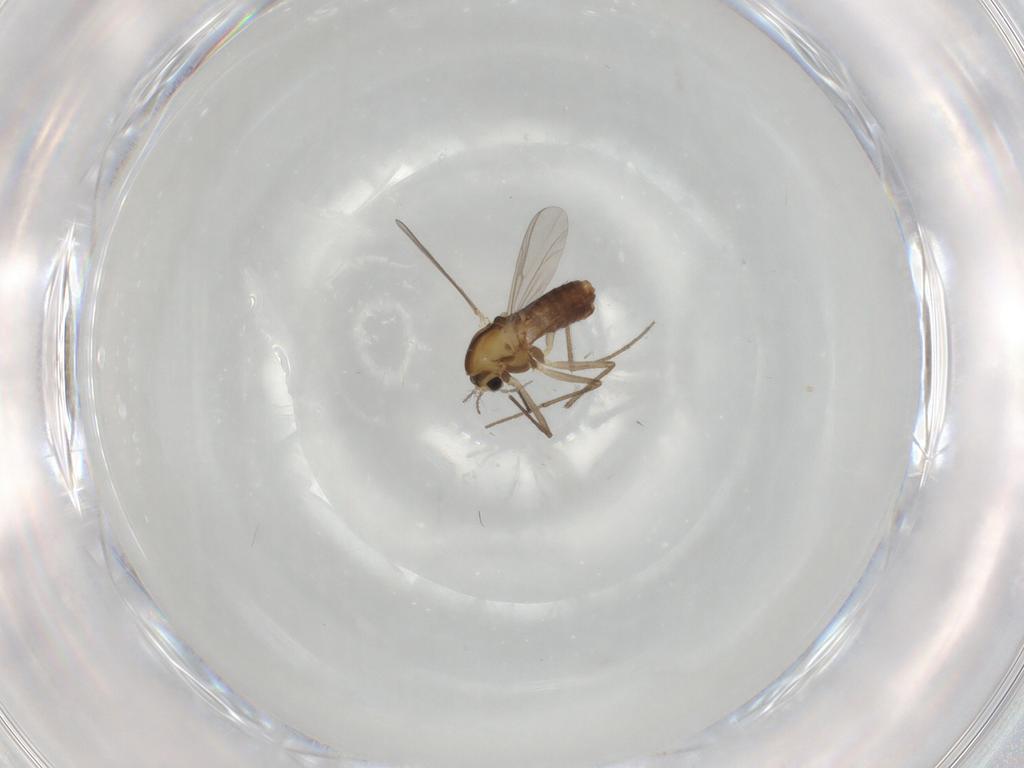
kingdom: Animalia
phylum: Arthropoda
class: Insecta
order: Diptera
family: Chironomidae
